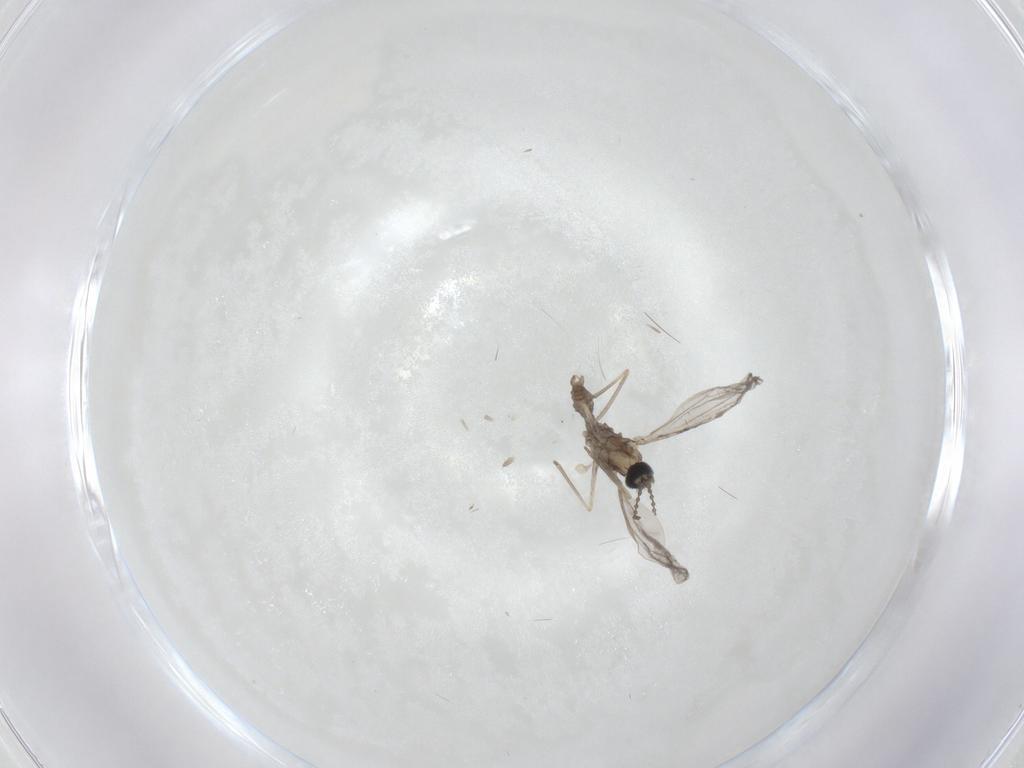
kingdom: Animalia
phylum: Arthropoda
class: Insecta
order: Diptera
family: Cecidomyiidae
